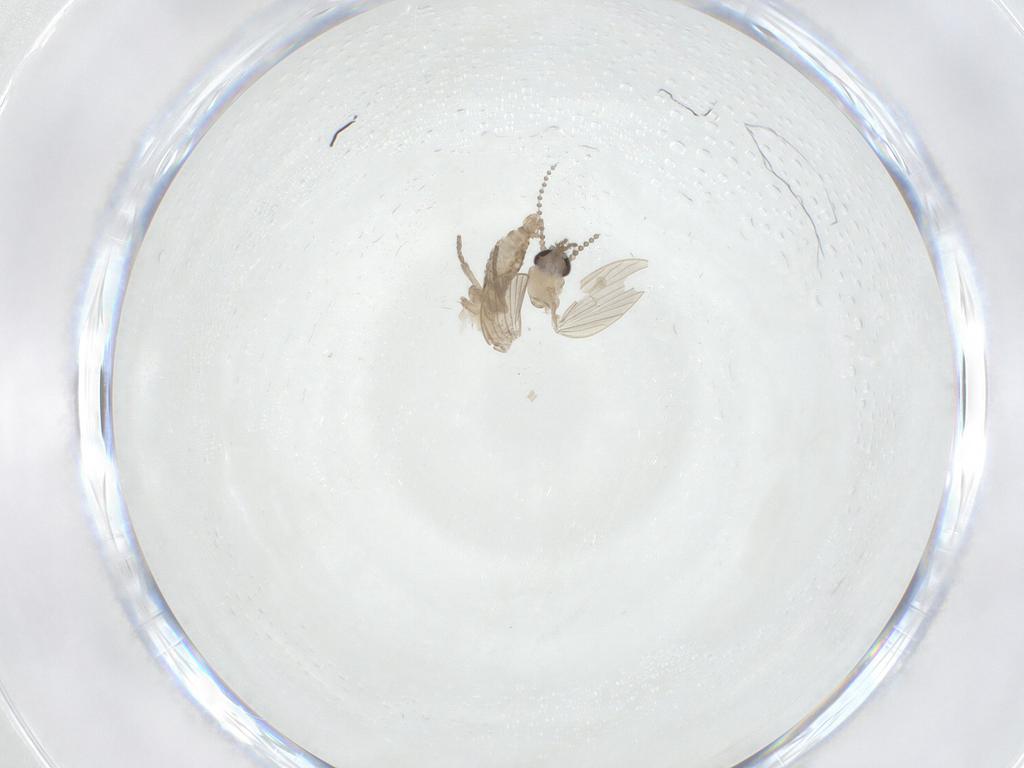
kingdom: Animalia
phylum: Arthropoda
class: Insecta
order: Diptera
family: Psychodidae
